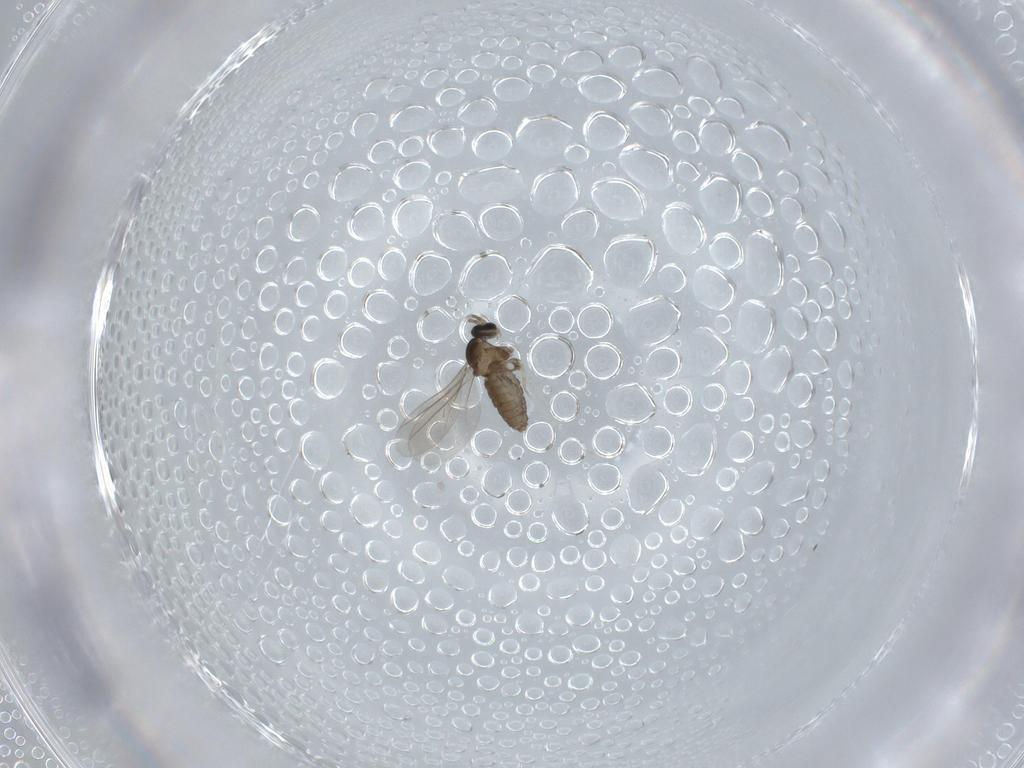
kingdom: Animalia
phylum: Arthropoda
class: Insecta
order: Diptera
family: Cecidomyiidae
